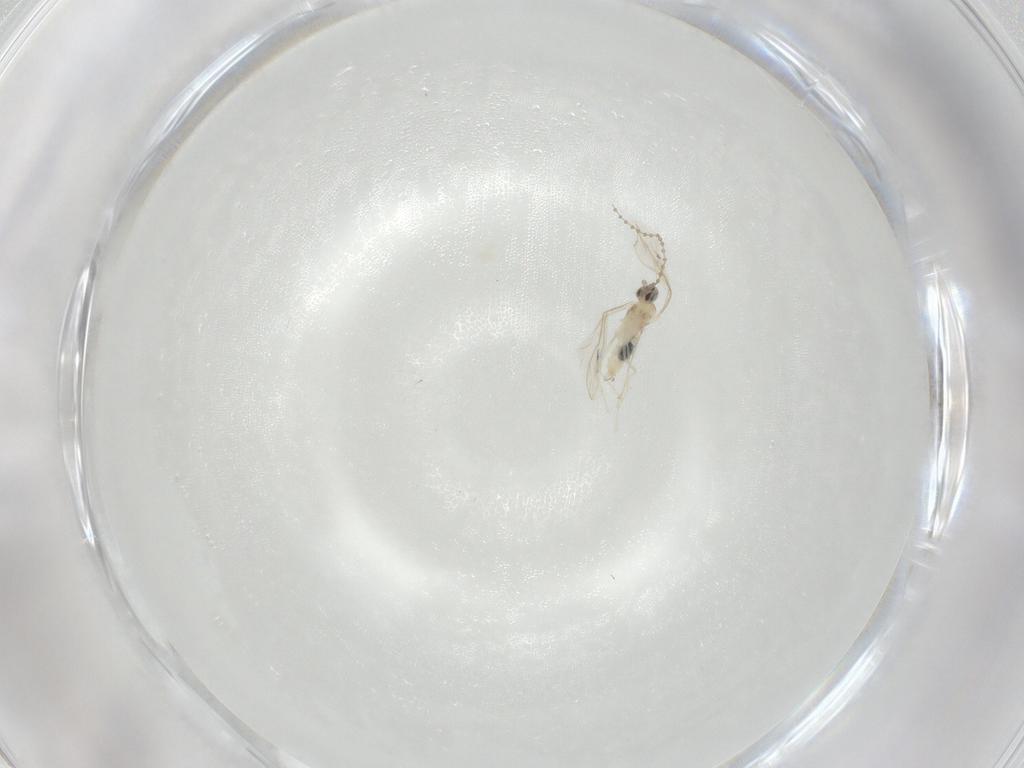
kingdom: Animalia
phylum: Arthropoda
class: Insecta
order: Diptera
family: Cecidomyiidae
